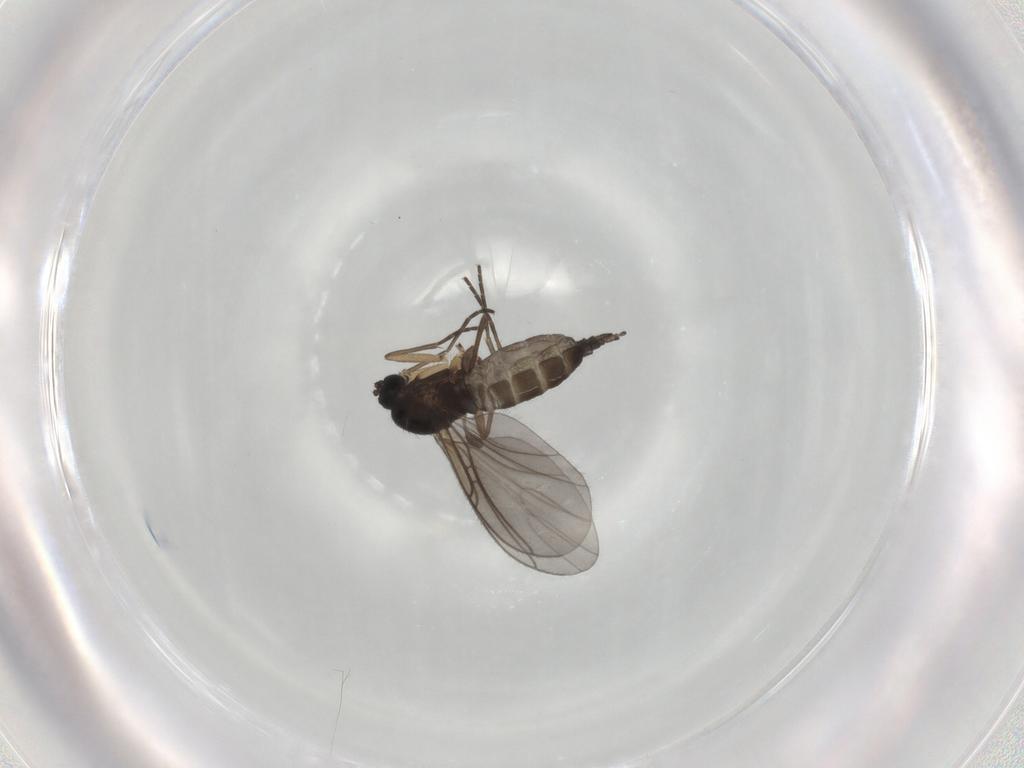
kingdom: Animalia
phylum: Arthropoda
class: Insecta
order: Diptera
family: Sciaridae
